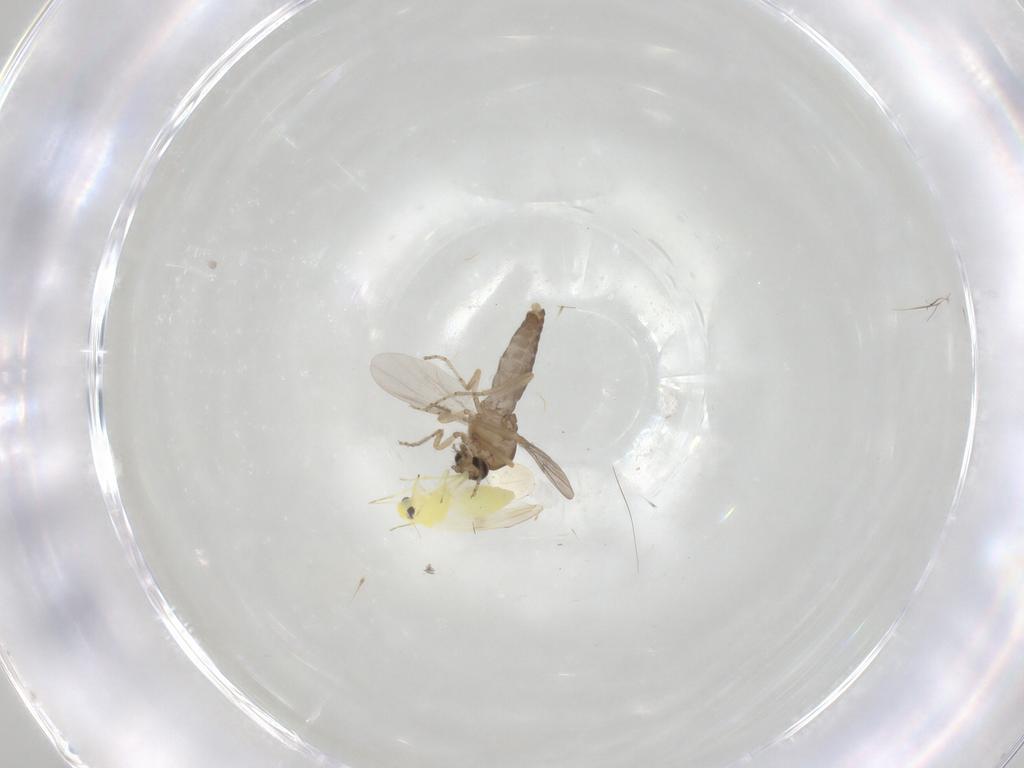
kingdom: Animalia
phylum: Arthropoda
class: Insecta
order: Diptera
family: Ceratopogonidae
